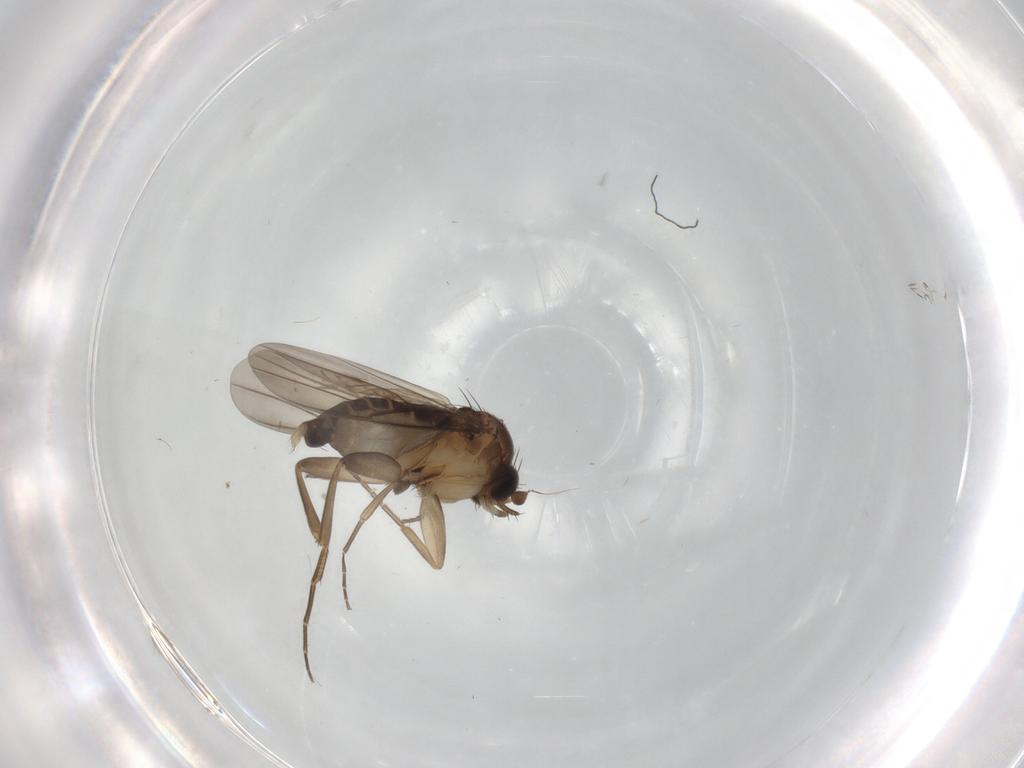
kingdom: Animalia
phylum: Arthropoda
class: Insecta
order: Diptera
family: Phoridae
